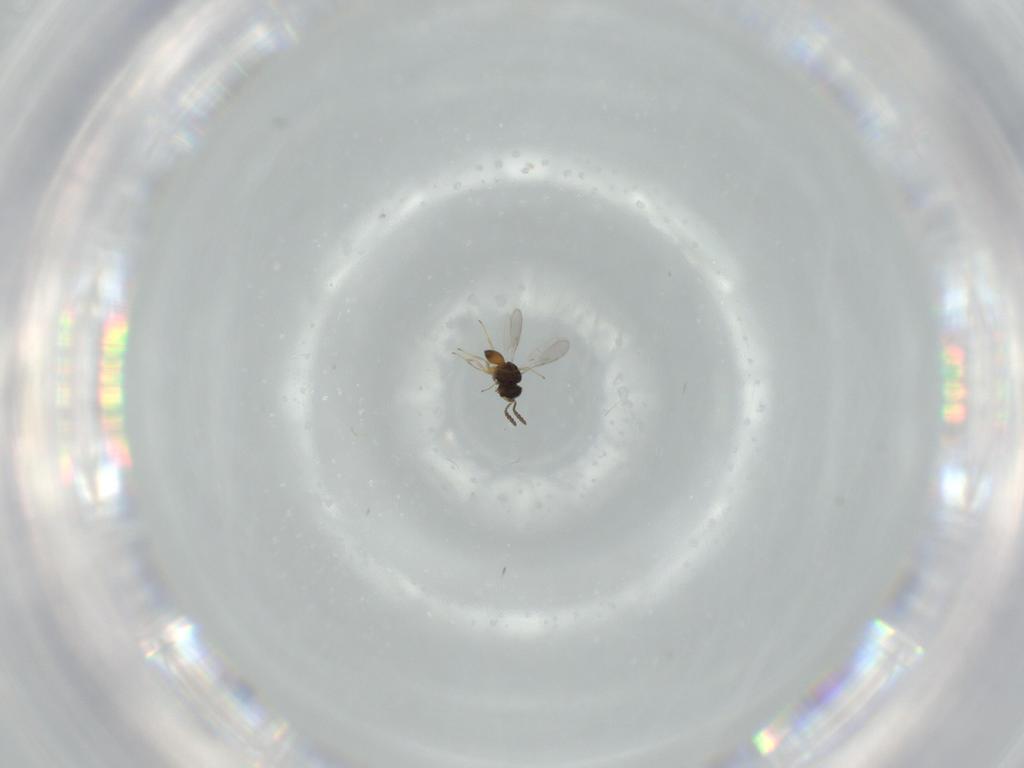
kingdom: Animalia
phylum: Arthropoda
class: Insecta
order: Hymenoptera
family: Scelionidae
